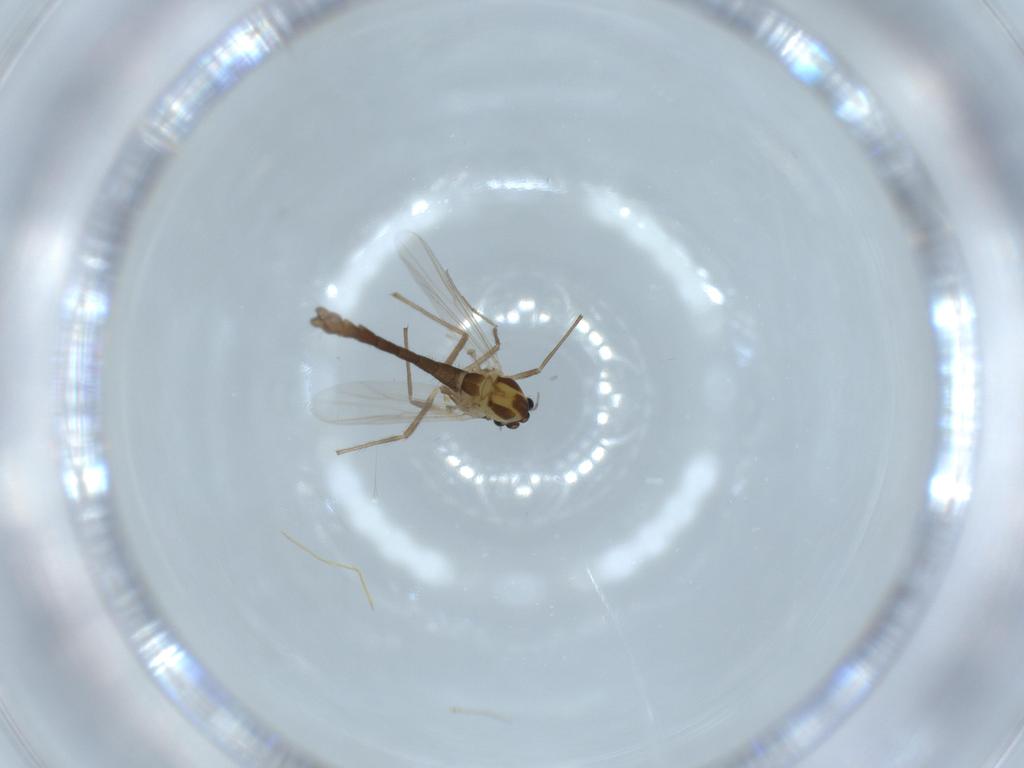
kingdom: Animalia
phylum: Arthropoda
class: Insecta
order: Diptera
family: Chironomidae
